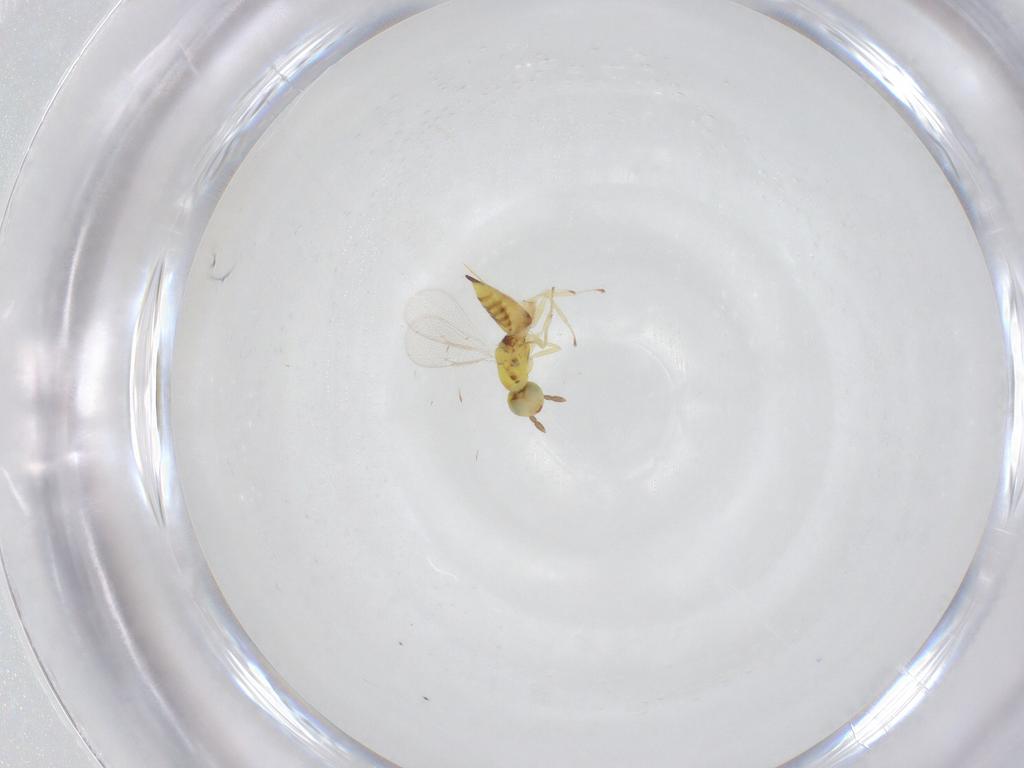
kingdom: Animalia
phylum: Arthropoda
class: Insecta
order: Hymenoptera
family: Eulophidae
